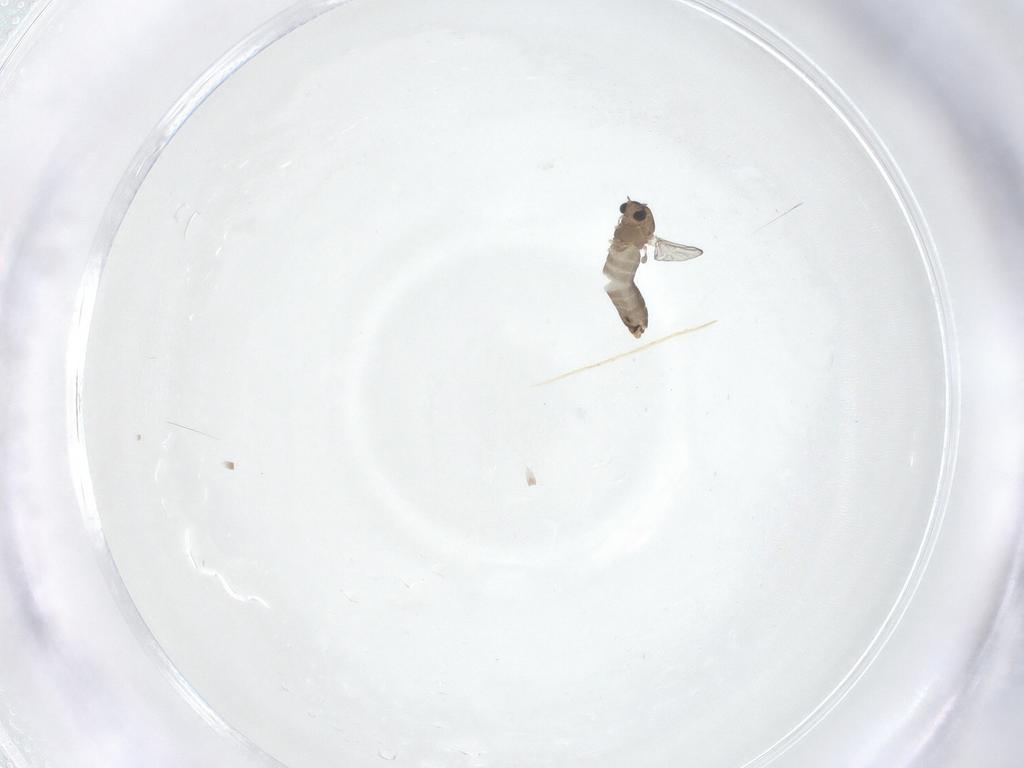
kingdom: Animalia
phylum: Arthropoda
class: Insecta
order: Diptera
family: Chironomidae
